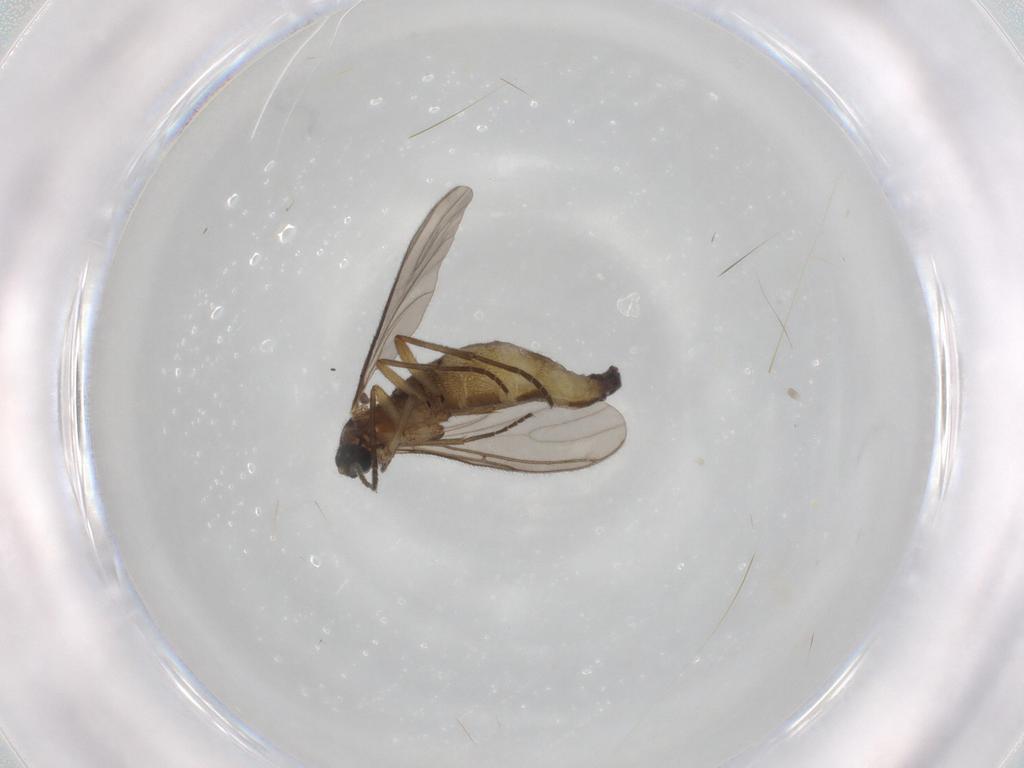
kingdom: Animalia
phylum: Arthropoda
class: Insecta
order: Diptera
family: Sciaridae
